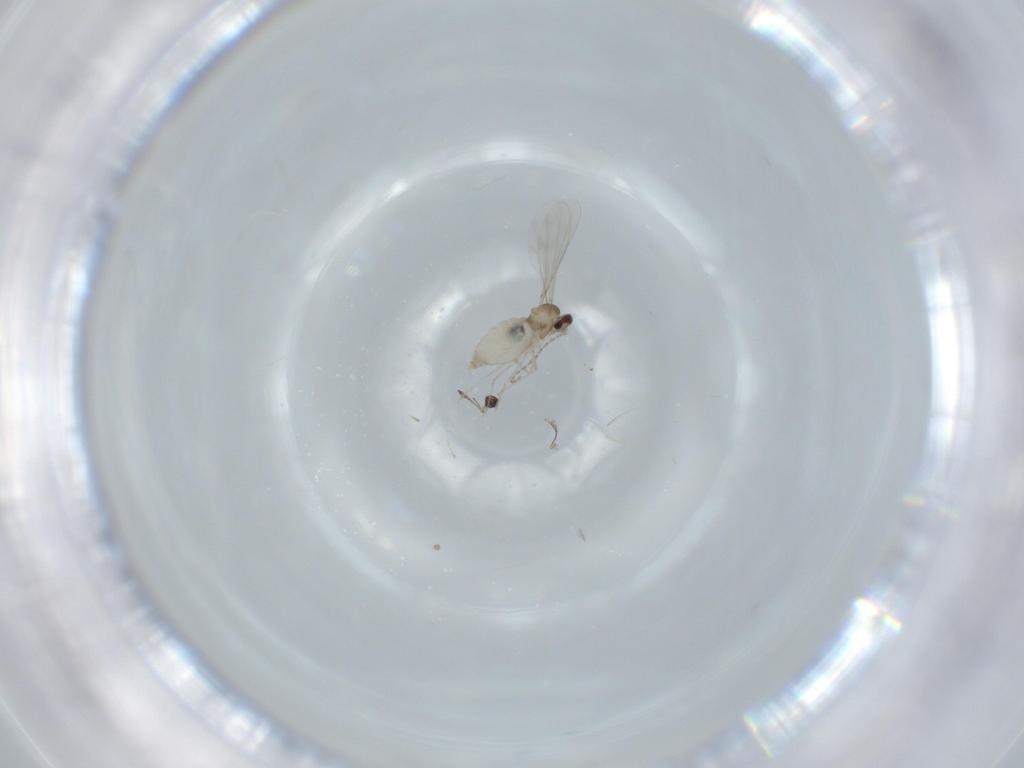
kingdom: Animalia
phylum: Arthropoda
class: Insecta
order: Diptera
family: Cecidomyiidae
